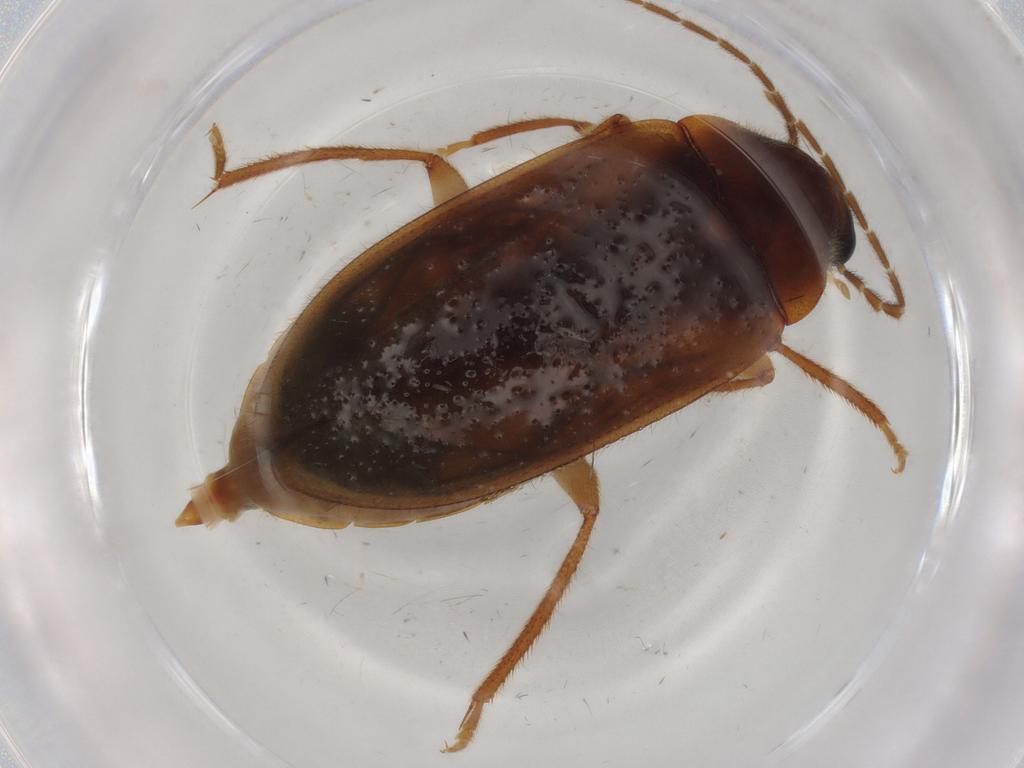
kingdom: Animalia
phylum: Arthropoda
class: Insecta
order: Coleoptera
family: Ptilodactylidae
